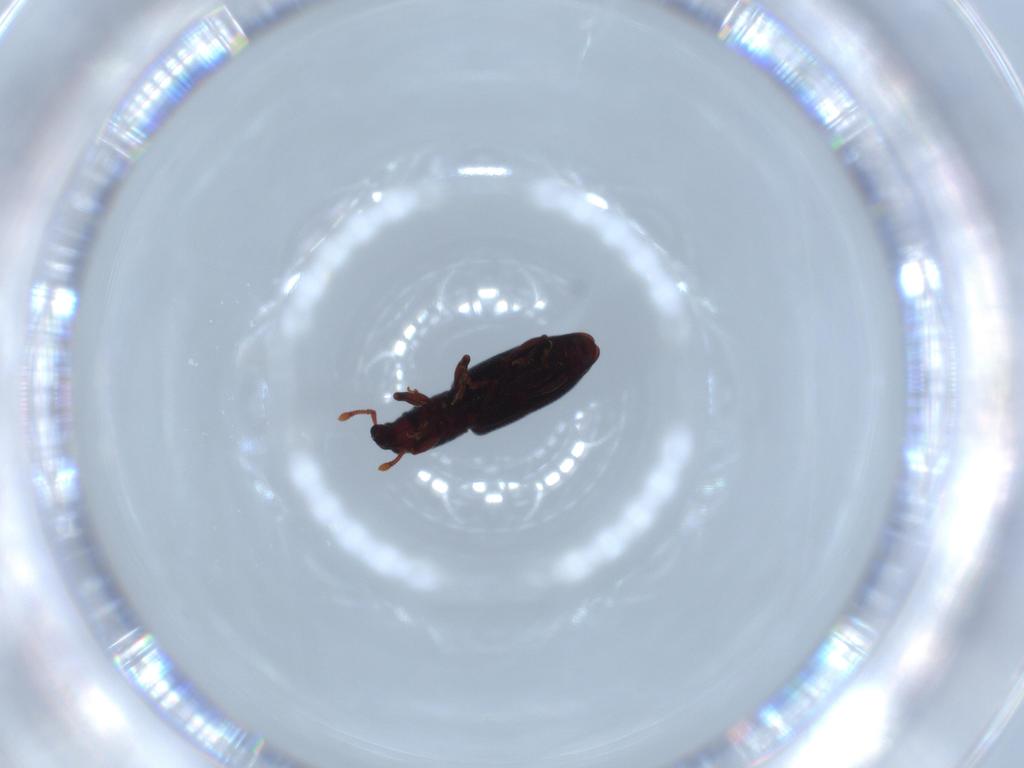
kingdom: Animalia
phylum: Arthropoda
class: Insecta
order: Coleoptera
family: Curculionidae
